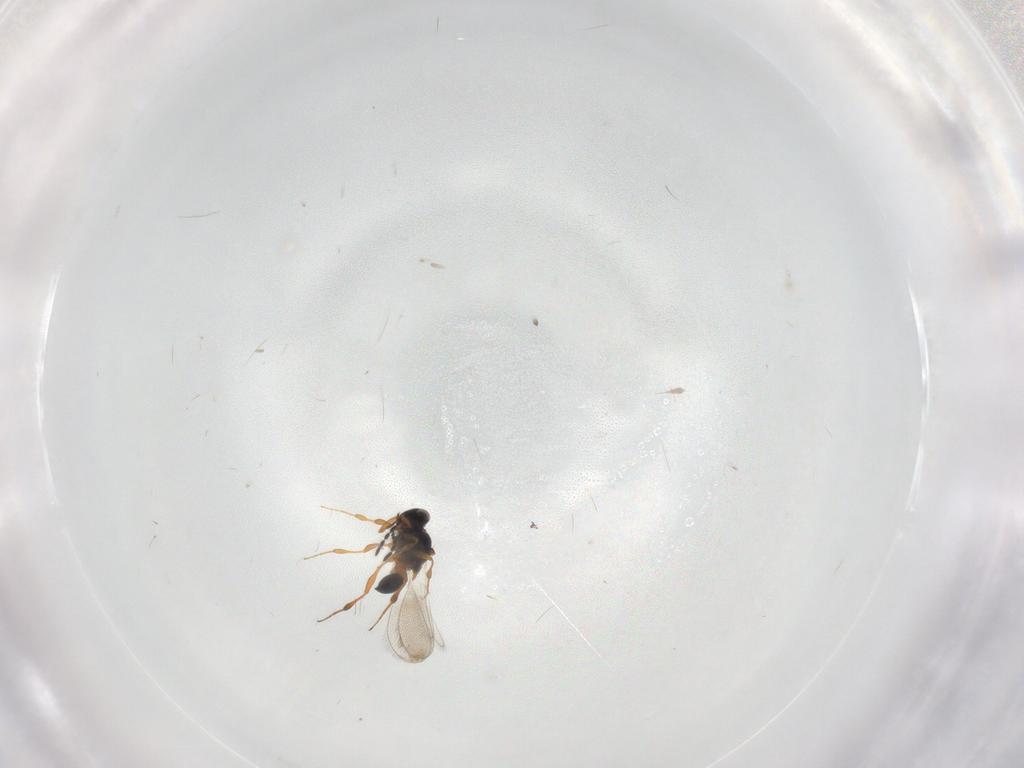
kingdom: Animalia
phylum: Arthropoda
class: Insecta
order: Hymenoptera
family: Platygastridae
